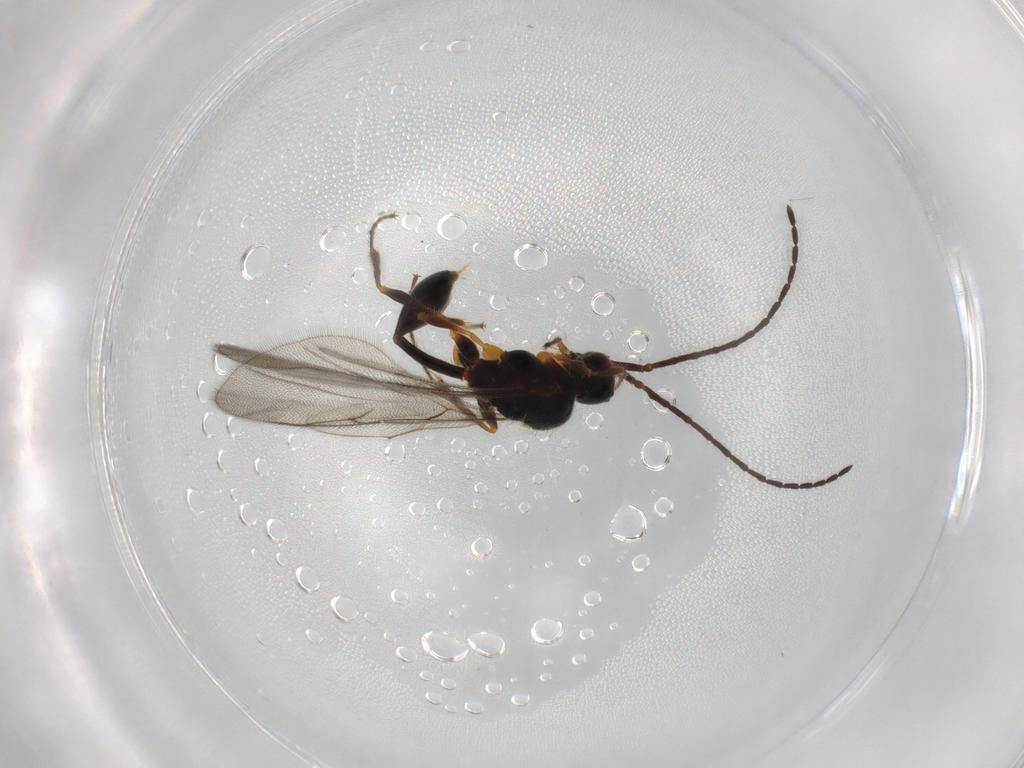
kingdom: Animalia
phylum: Arthropoda
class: Insecta
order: Hymenoptera
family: Diapriidae
